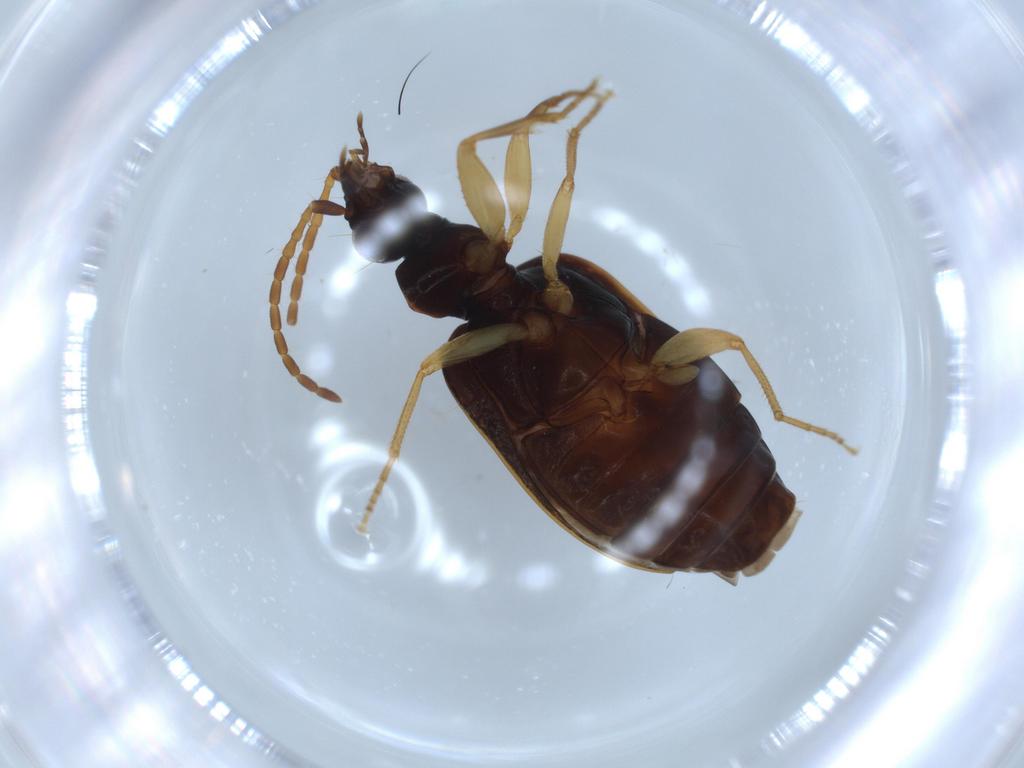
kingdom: Animalia
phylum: Arthropoda
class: Insecta
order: Coleoptera
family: Carabidae
